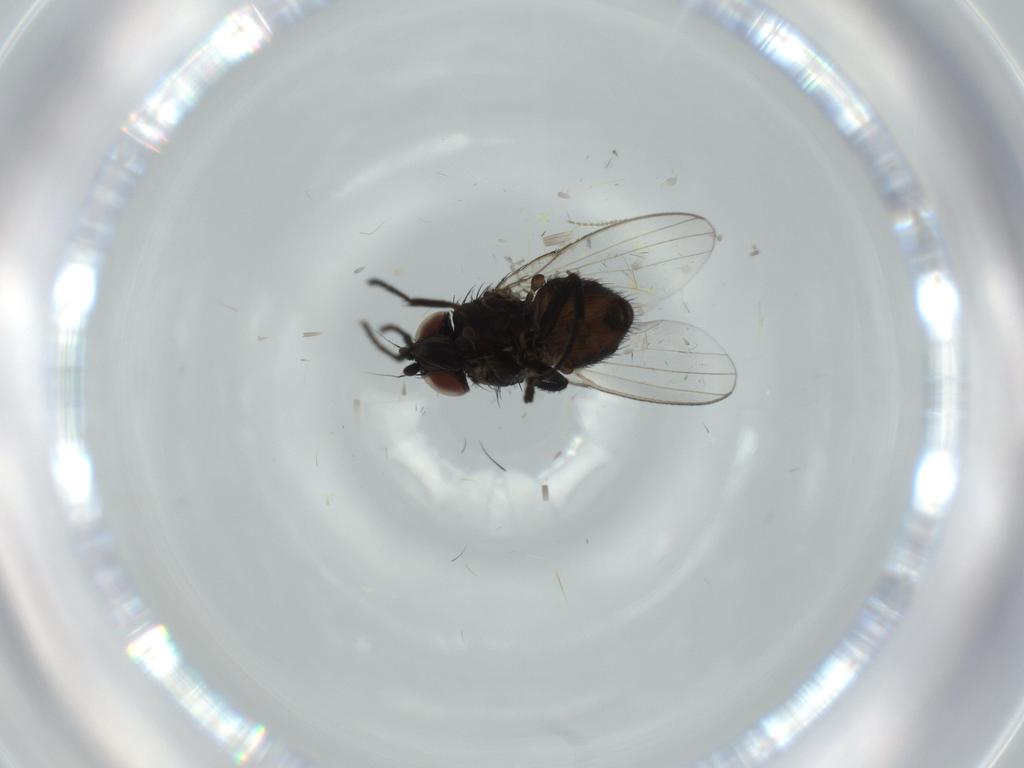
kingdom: Animalia
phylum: Arthropoda
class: Insecta
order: Diptera
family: Milichiidae
